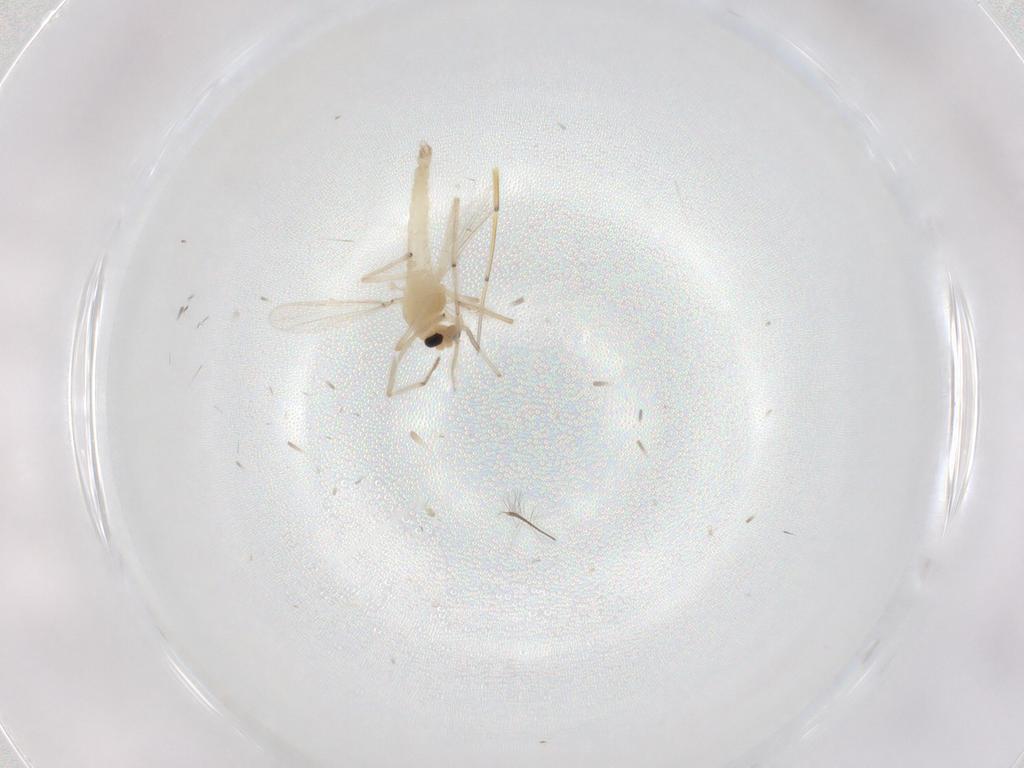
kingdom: Animalia
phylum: Arthropoda
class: Insecta
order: Diptera
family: Chironomidae
